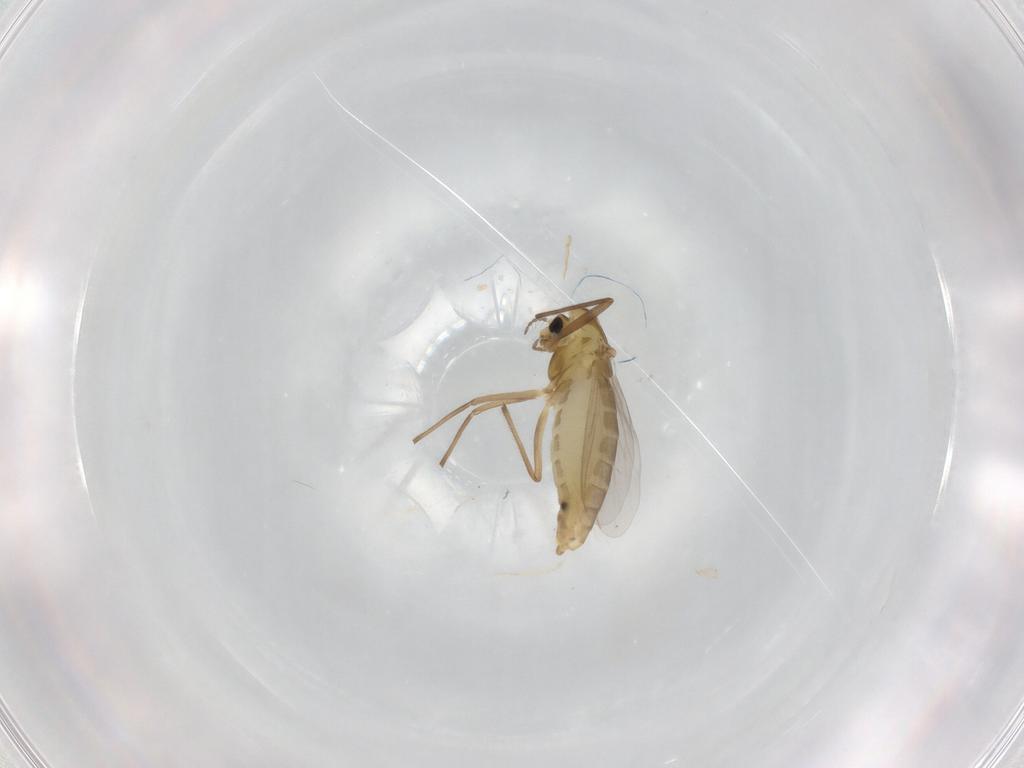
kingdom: Animalia
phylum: Arthropoda
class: Insecta
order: Diptera
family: Chironomidae
